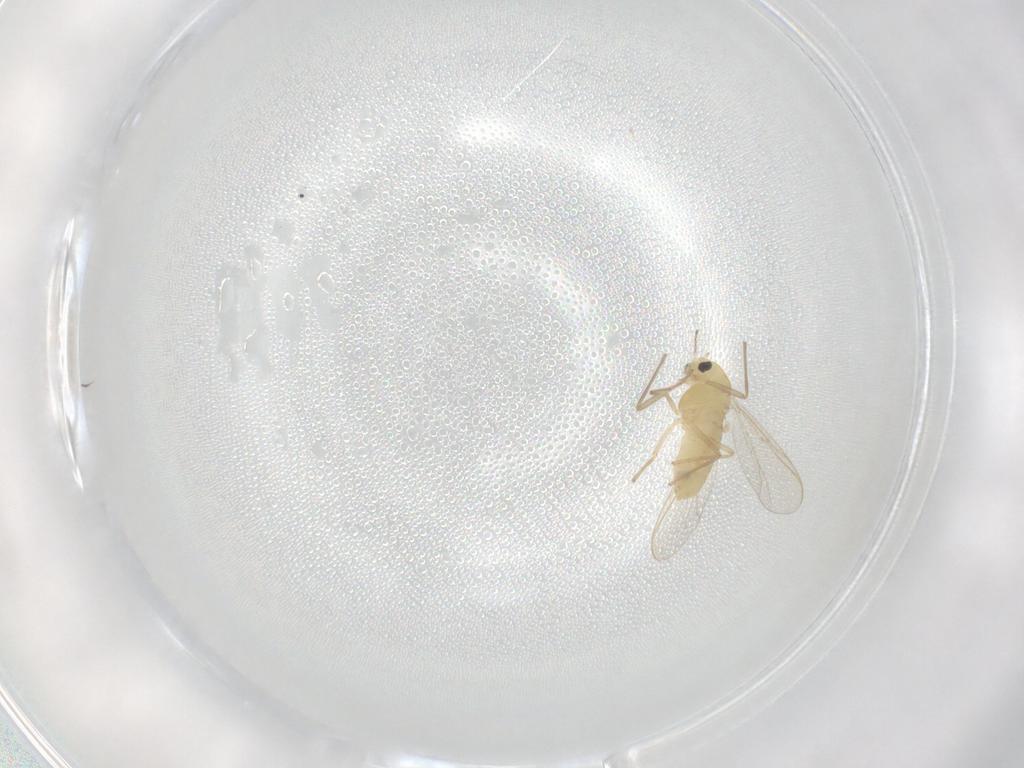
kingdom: Animalia
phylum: Arthropoda
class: Insecta
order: Diptera
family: Chironomidae
